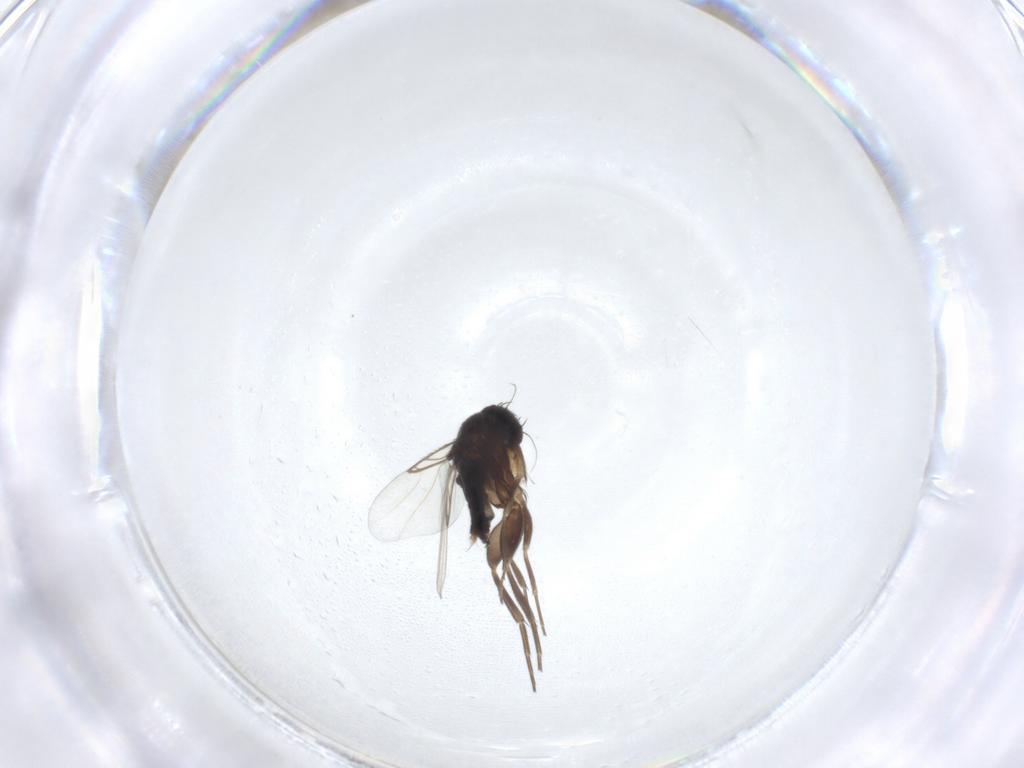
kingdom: Animalia
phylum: Arthropoda
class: Insecta
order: Diptera
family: Phoridae
